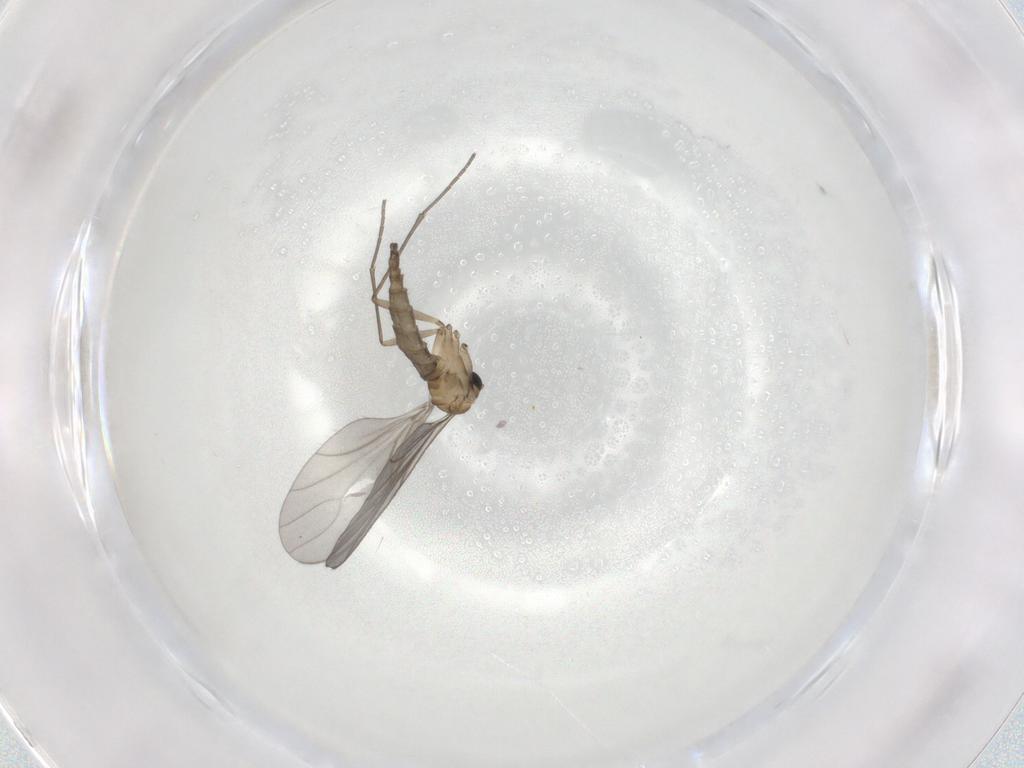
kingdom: Animalia
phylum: Arthropoda
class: Insecta
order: Diptera
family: Sciaridae
